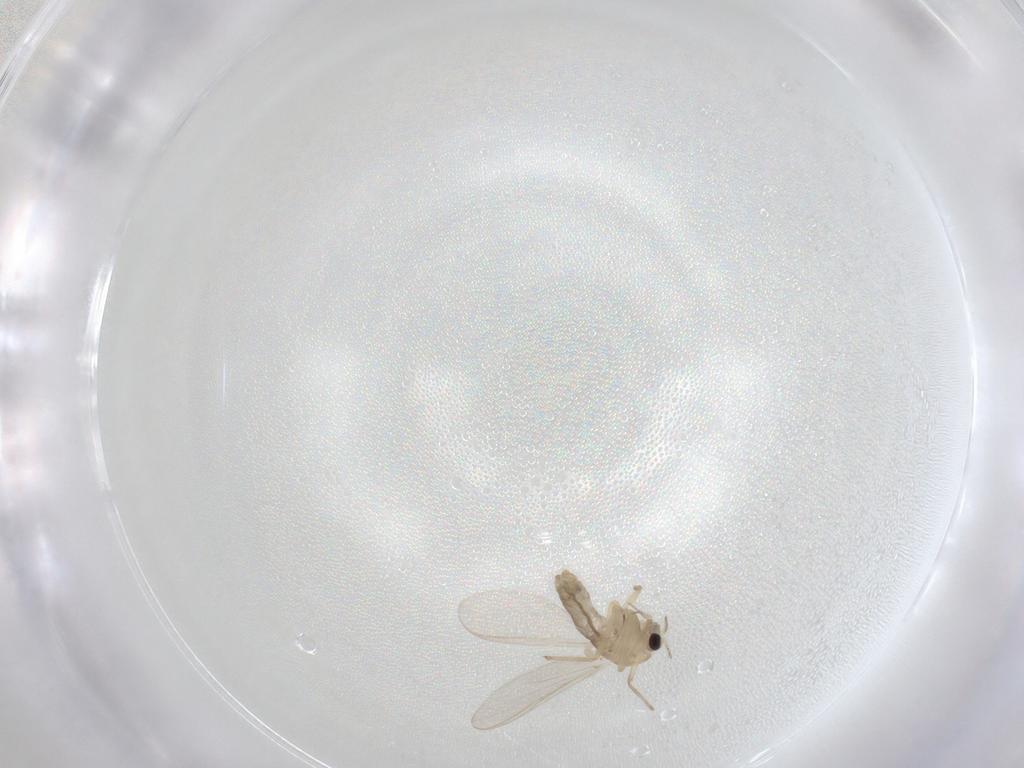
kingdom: Animalia
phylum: Arthropoda
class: Insecta
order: Diptera
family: Chironomidae
